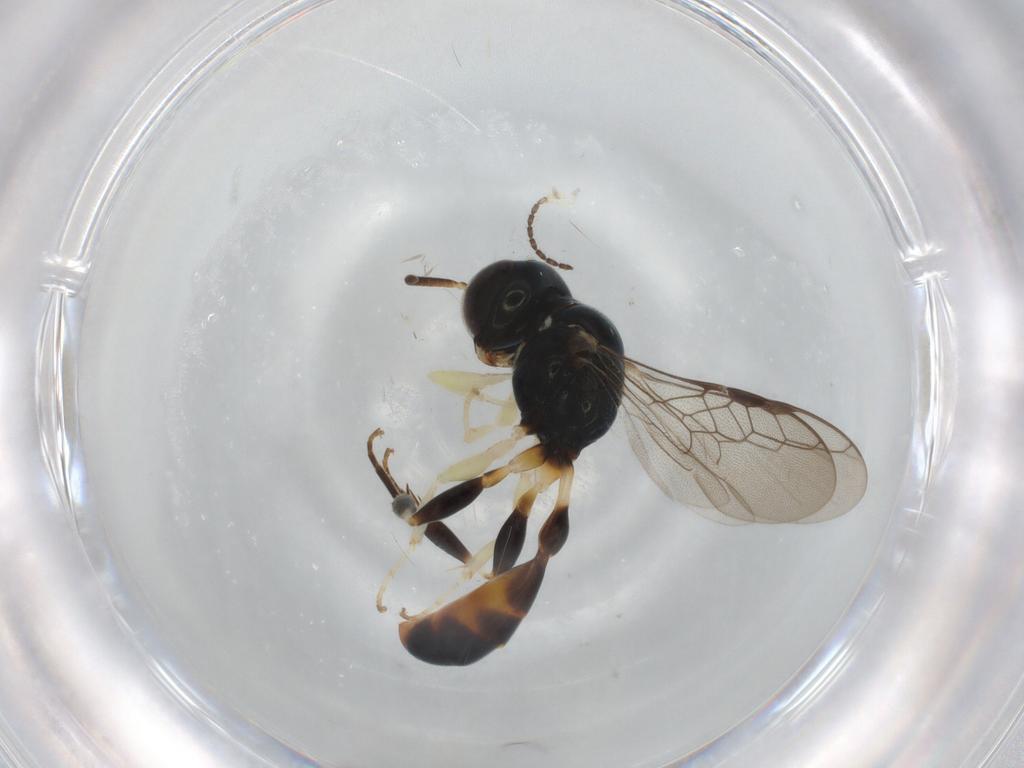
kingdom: Animalia
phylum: Arthropoda
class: Insecta
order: Hymenoptera
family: Crabronidae
